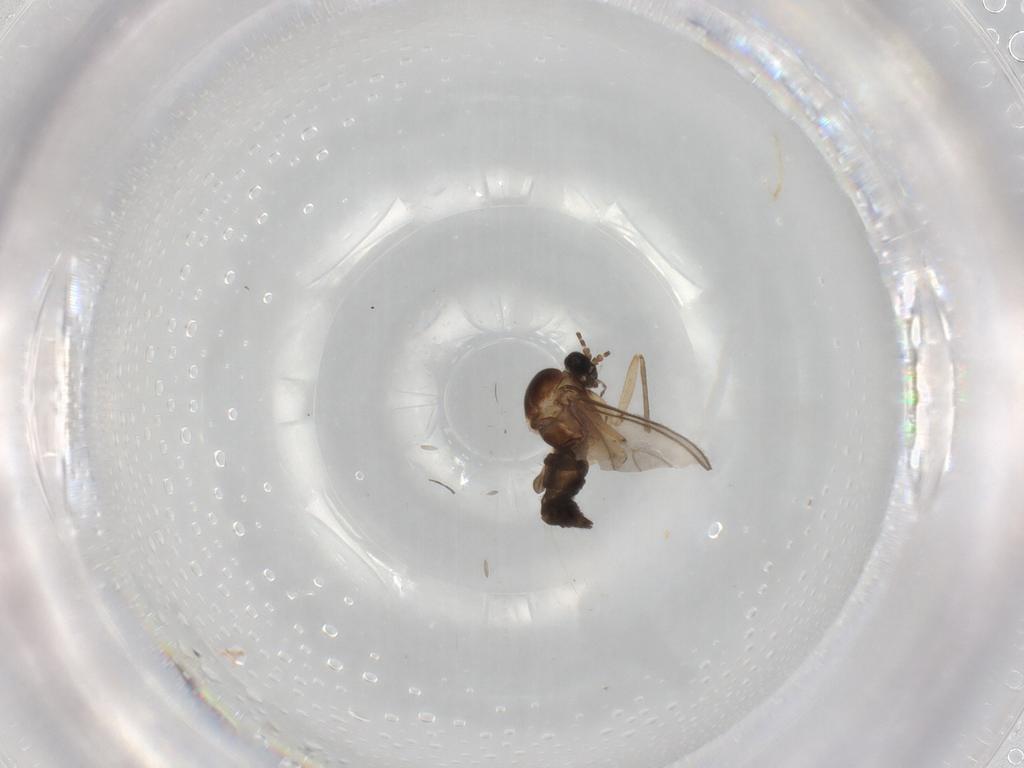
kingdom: Animalia
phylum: Arthropoda
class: Insecta
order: Diptera
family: Sciaridae
